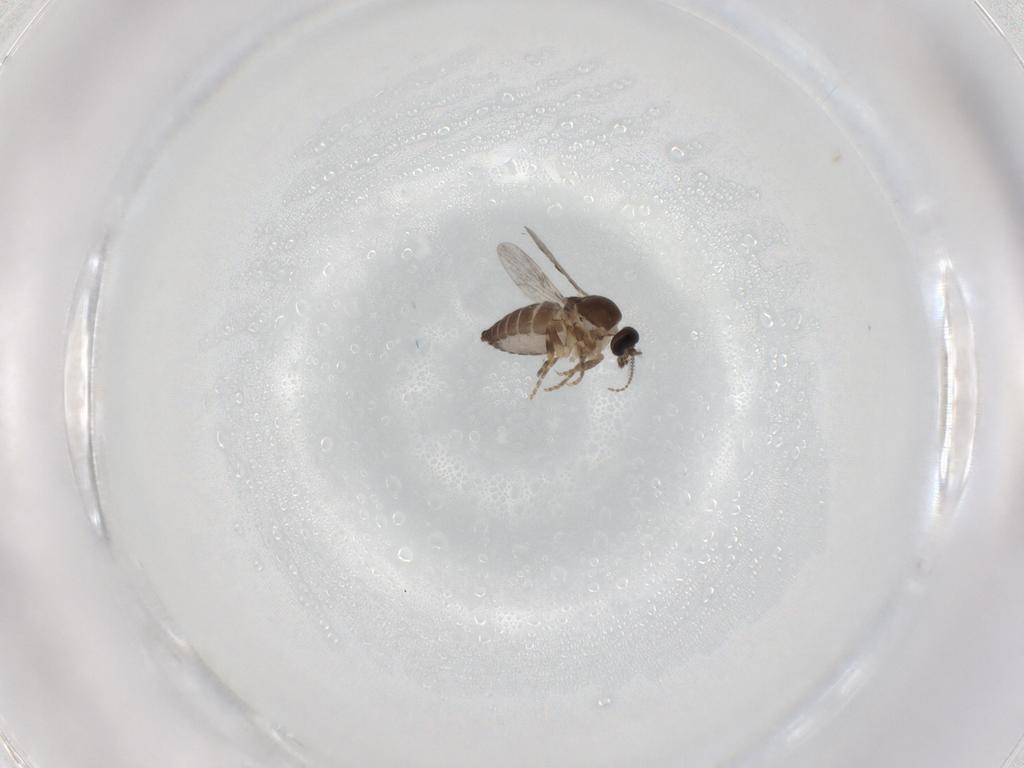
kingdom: Animalia
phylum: Arthropoda
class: Insecta
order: Diptera
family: Ceratopogonidae
